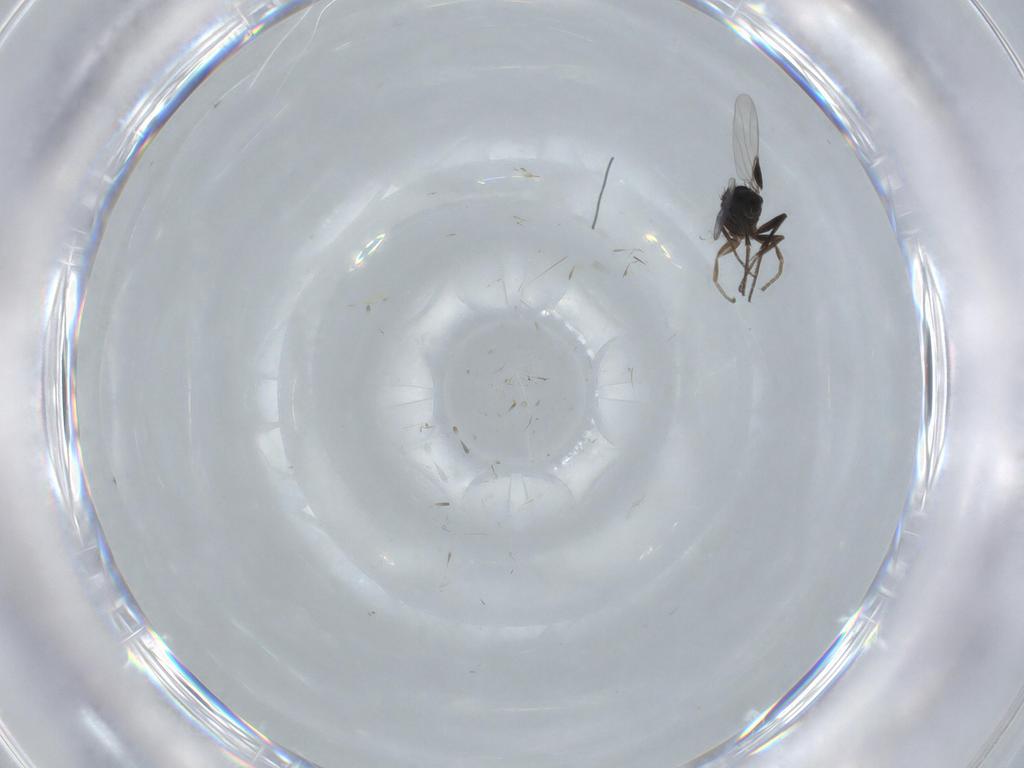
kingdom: Animalia
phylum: Arthropoda
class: Insecta
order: Diptera
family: Phoridae
